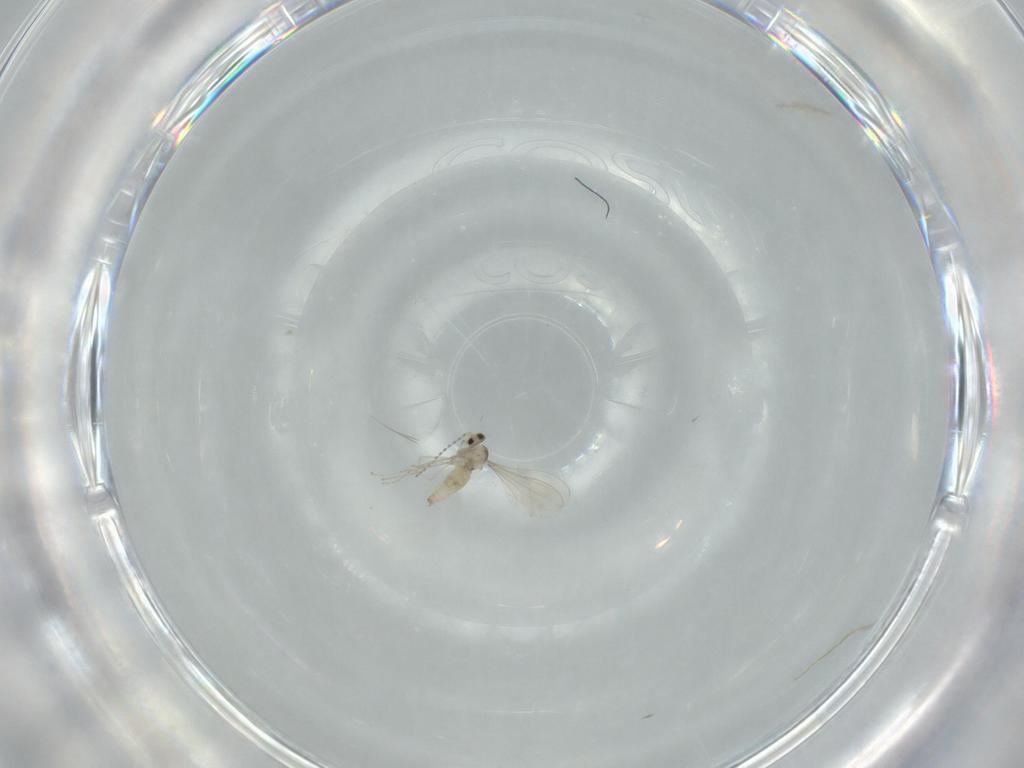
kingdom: Animalia
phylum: Arthropoda
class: Insecta
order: Diptera
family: Cecidomyiidae
